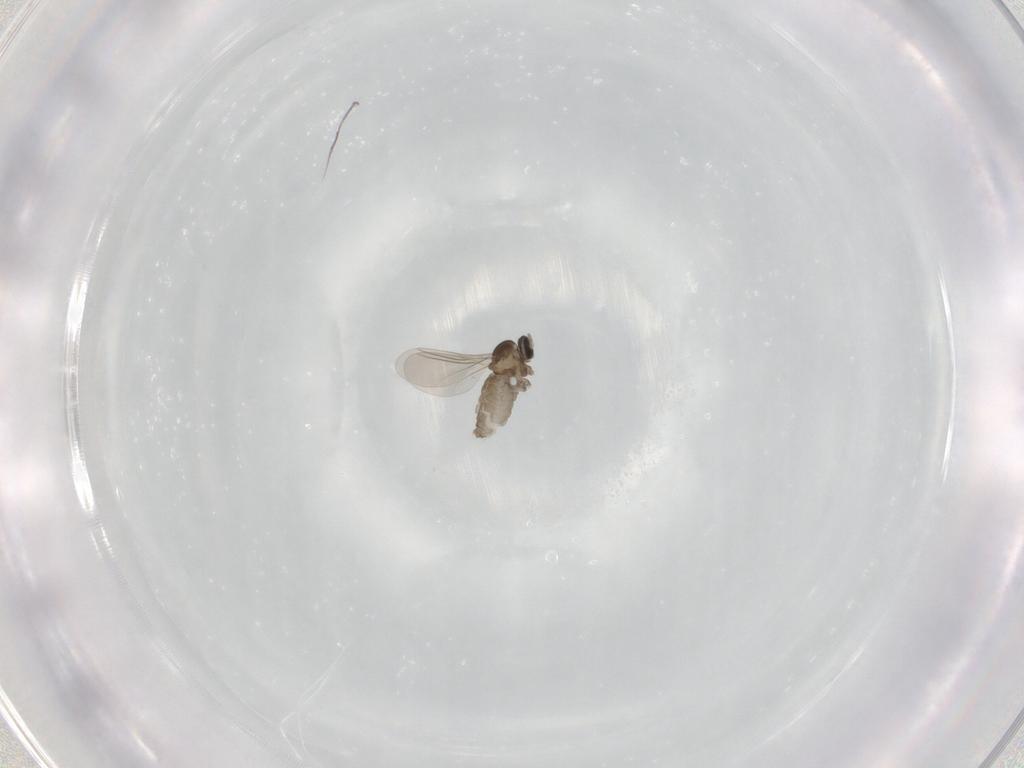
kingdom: Animalia
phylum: Arthropoda
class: Insecta
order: Diptera
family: Cecidomyiidae
